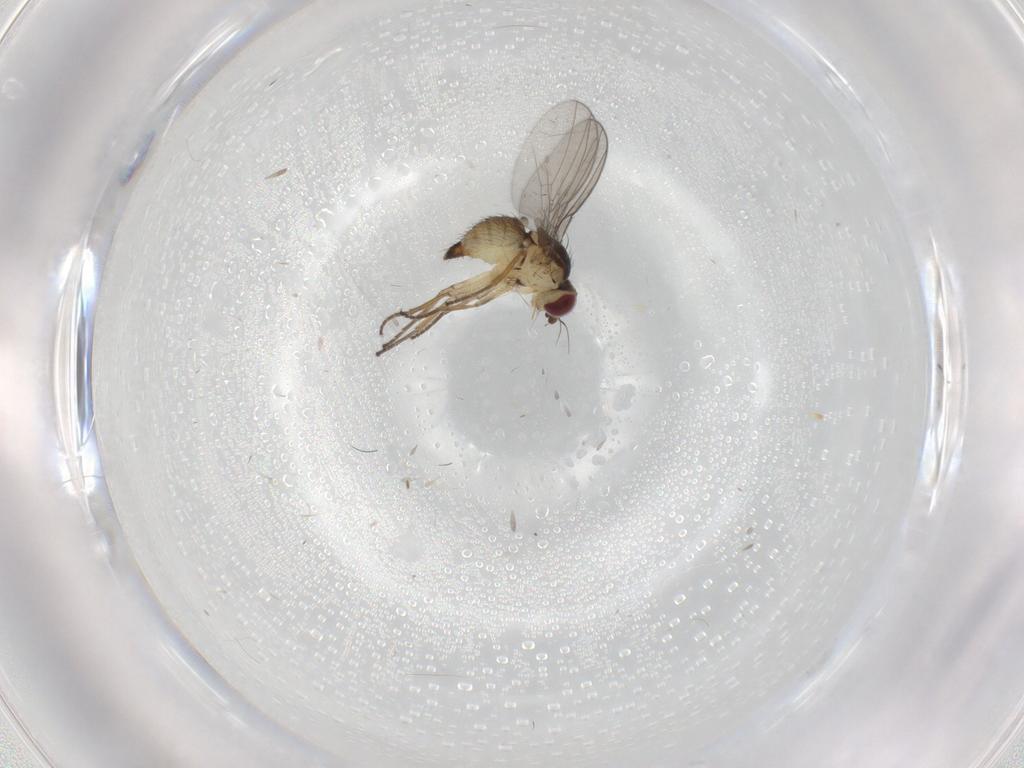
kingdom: Animalia
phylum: Arthropoda
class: Insecta
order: Diptera
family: Agromyzidae
